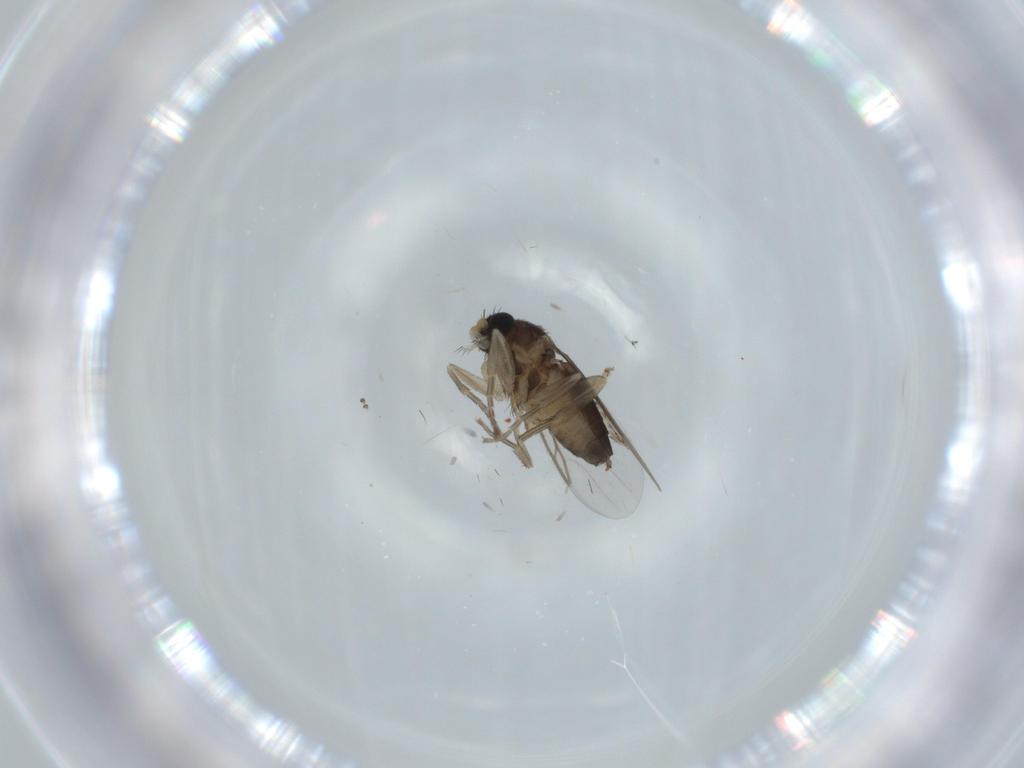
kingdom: Animalia
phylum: Arthropoda
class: Insecta
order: Diptera
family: Phoridae
